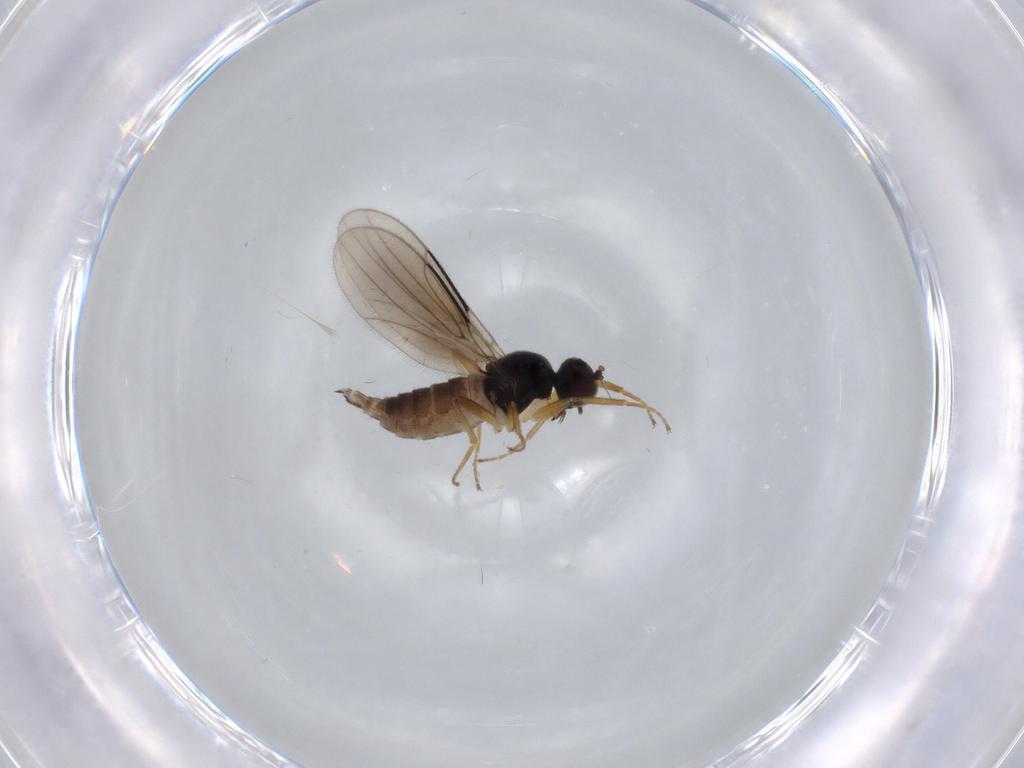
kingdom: Animalia
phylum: Arthropoda
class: Insecta
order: Diptera
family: Hybotidae
